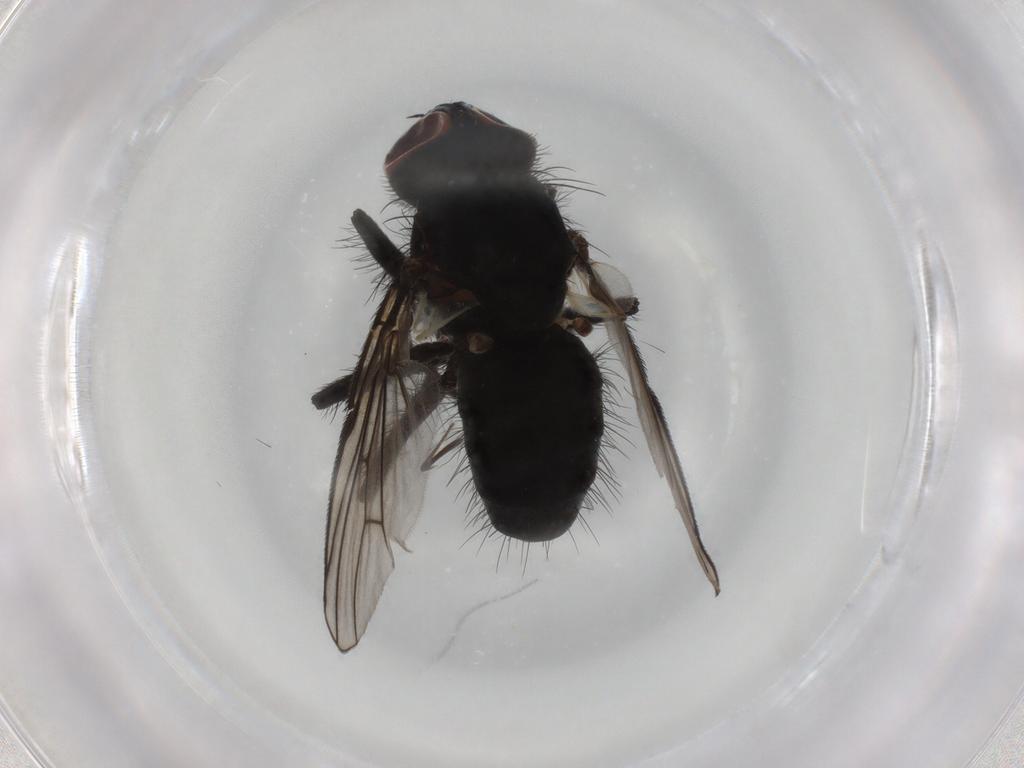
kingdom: Animalia
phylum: Arthropoda
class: Insecta
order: Diptera
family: Muscidae
